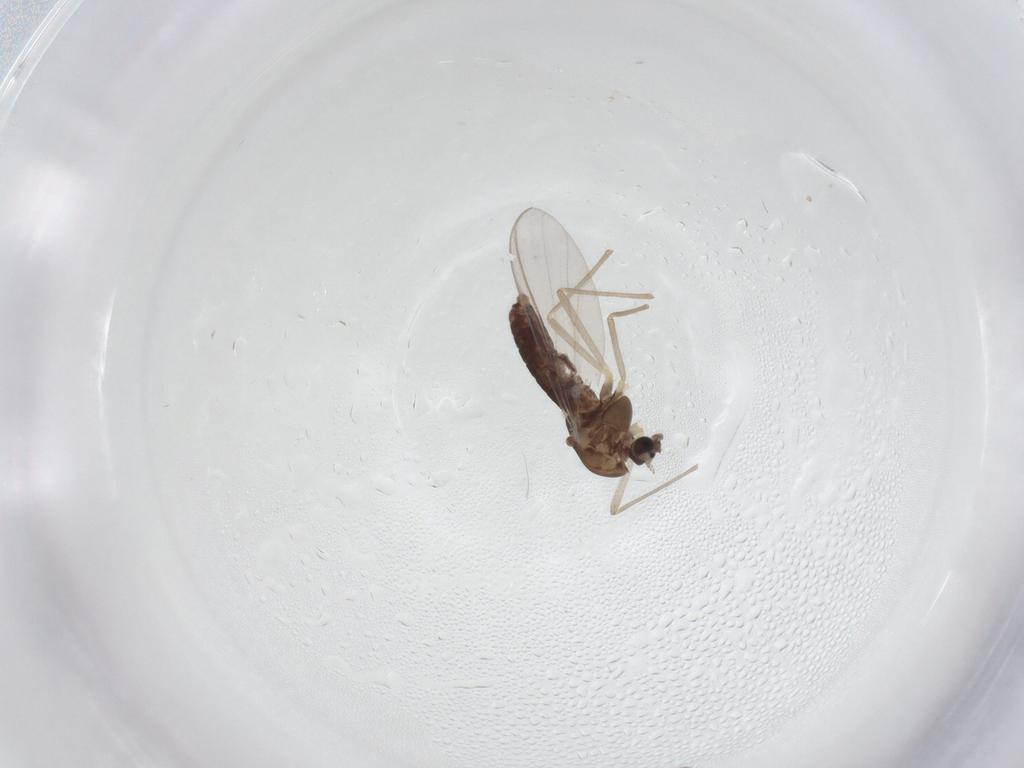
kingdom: Animalia
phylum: Arthropoda
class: Insecta
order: Diptera
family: Chironomidae
